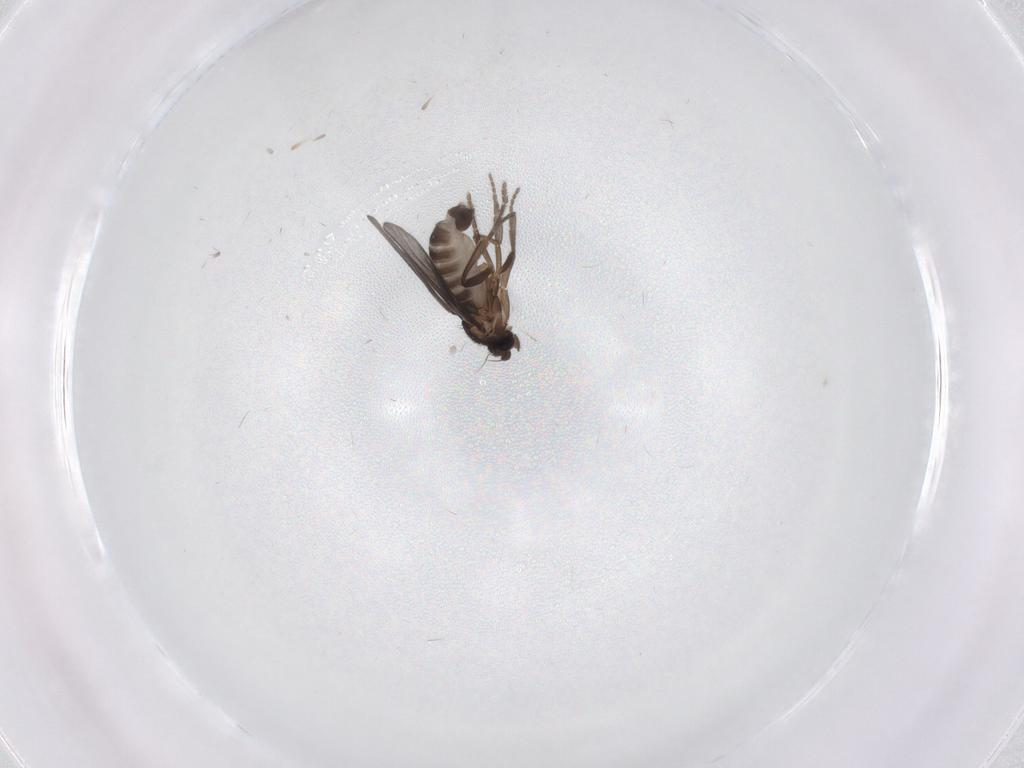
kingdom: Animalia
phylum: Arthropoda
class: Insecta
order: Diptera
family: Phoridae
